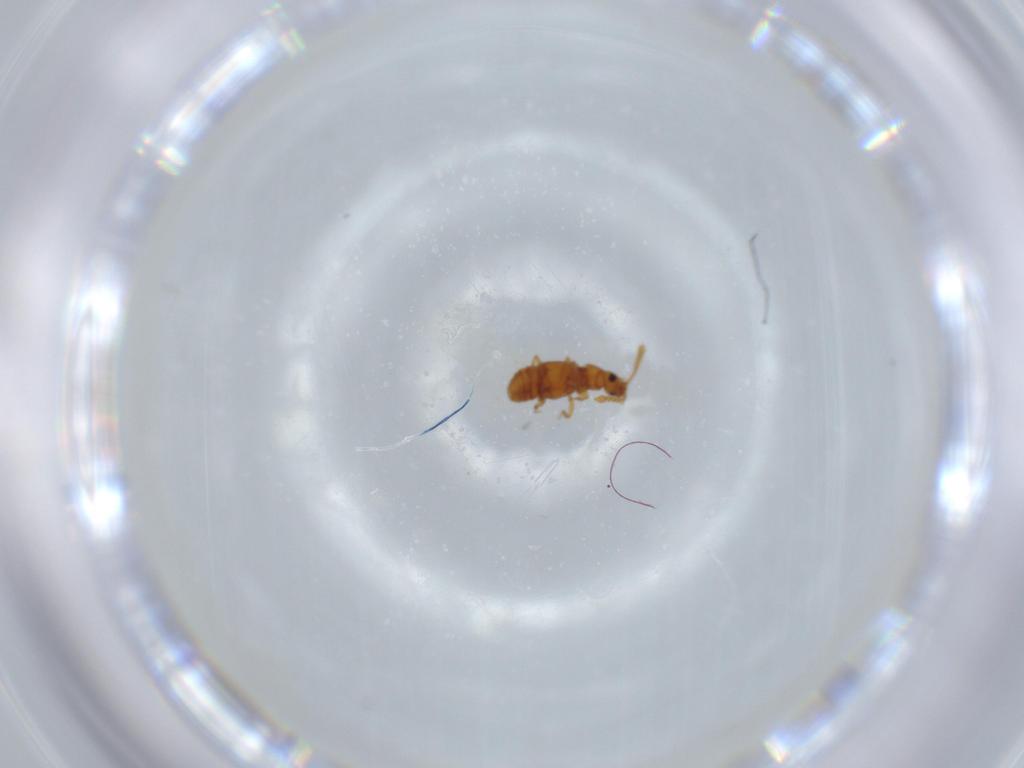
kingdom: Animalia
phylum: Arthropoda
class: Insecta
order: Coleoptera
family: Staphylinidae
